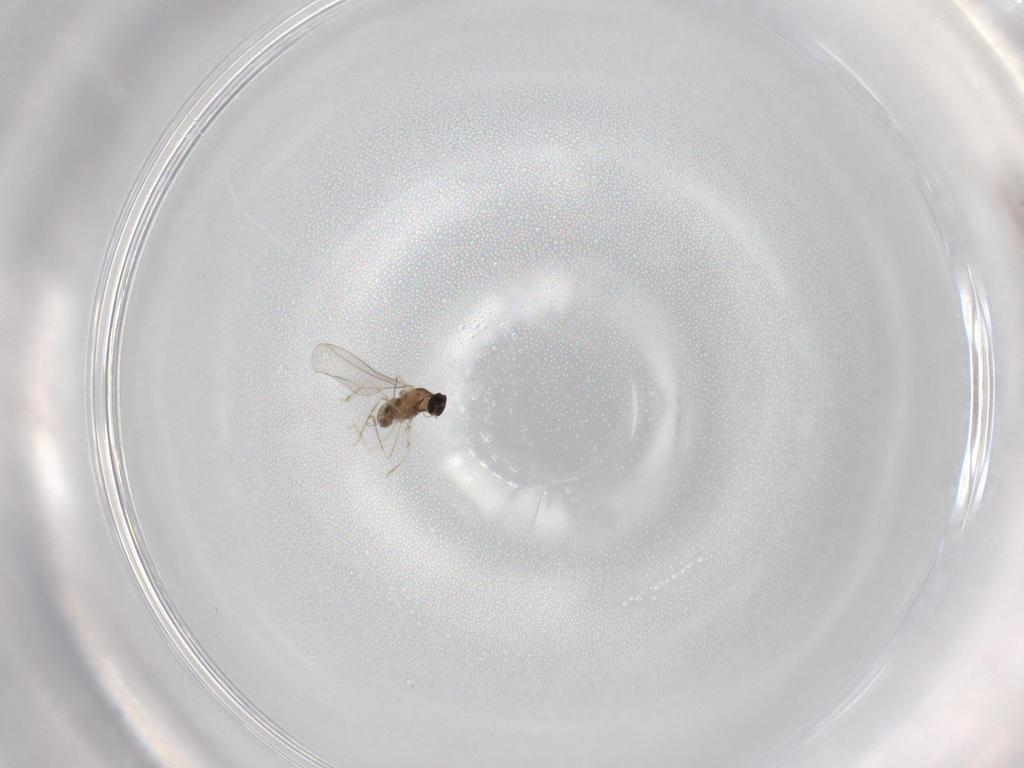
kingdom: Animalia
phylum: Arthropoda
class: Insecta
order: Diptera
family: Cecidomyiidae
